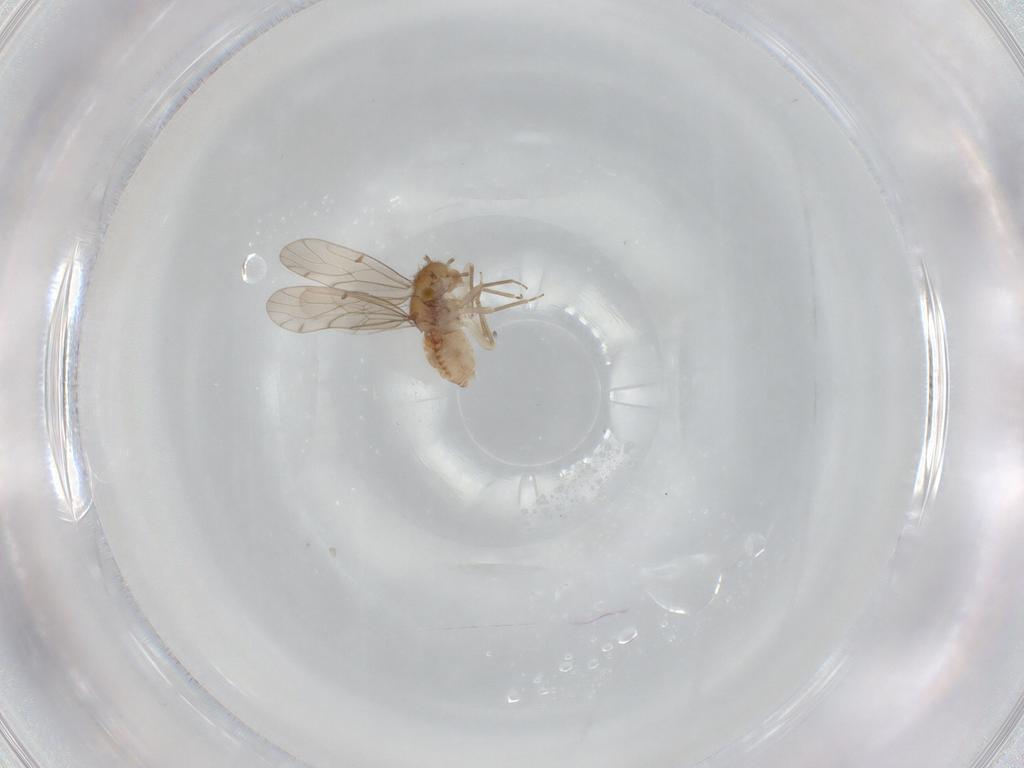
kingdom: Animalia
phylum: Arthropoda
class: Insecta
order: Psocodea
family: Ectopsocidae
